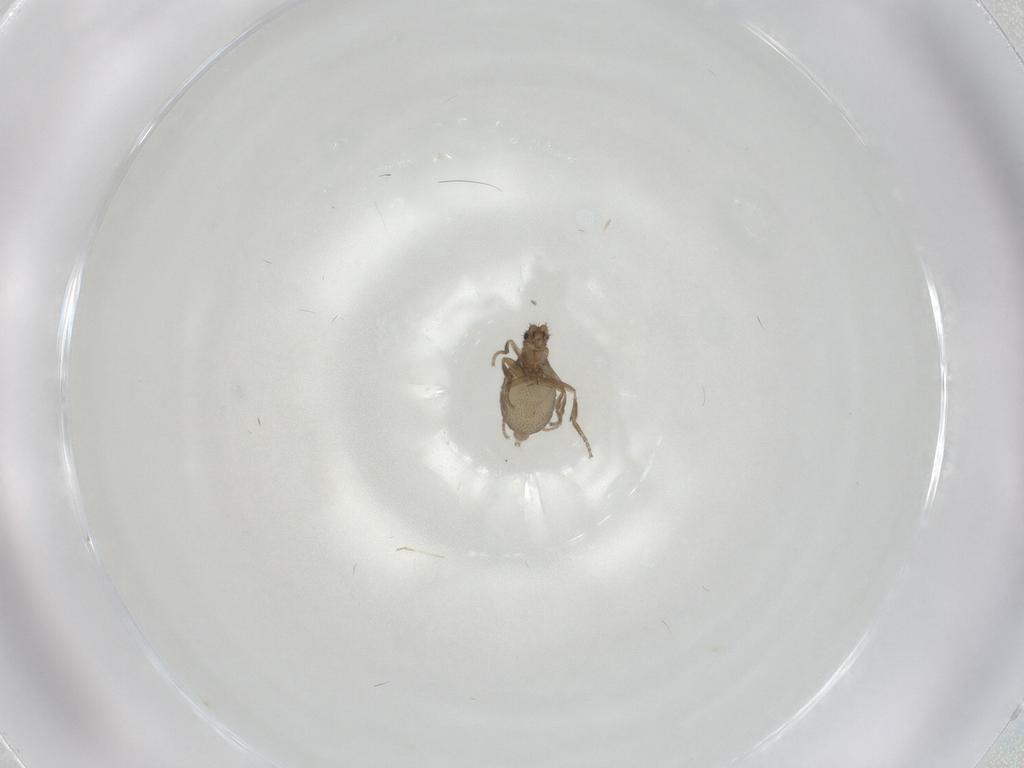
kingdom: Animalia
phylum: Arthropoda
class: Insecta
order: Diptera
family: Phoridae
